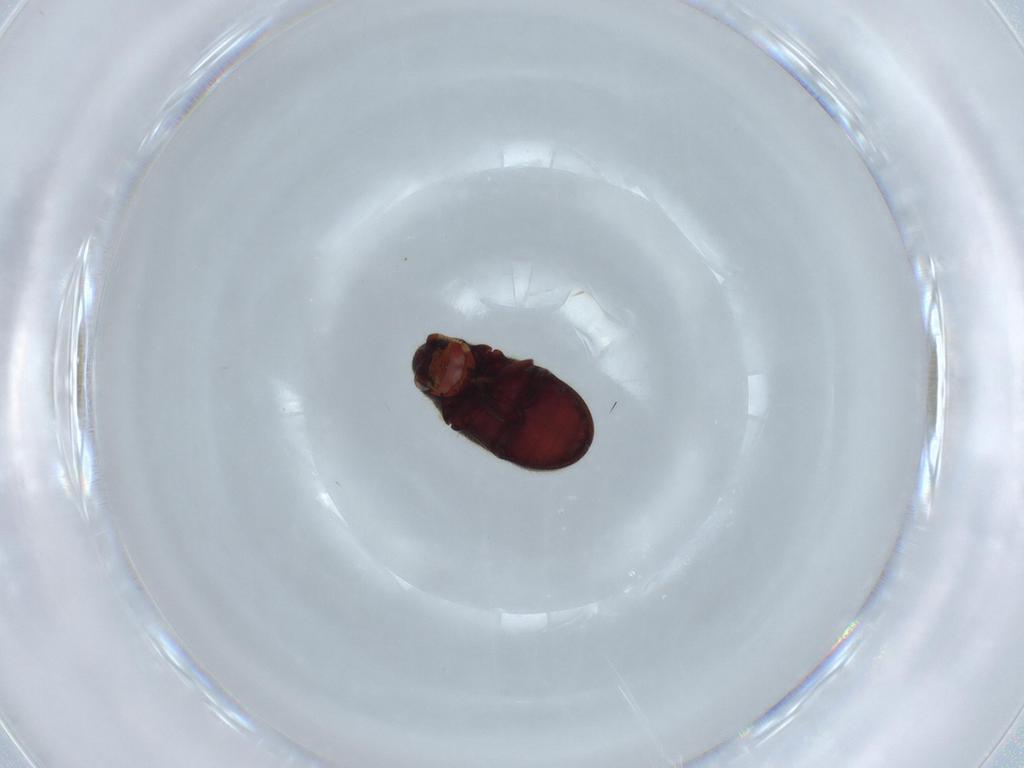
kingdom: Animalia
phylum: Arthropoda
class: Insecta
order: Coleoptera
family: Ptinidae
